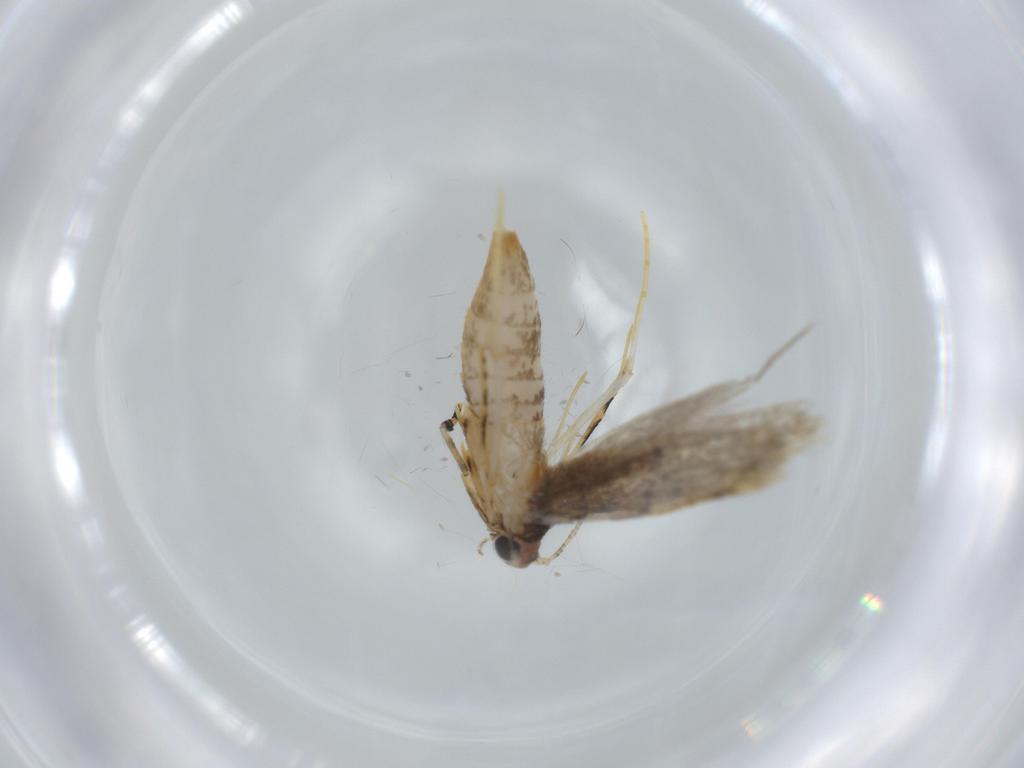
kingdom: Animalia
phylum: Arthropoda
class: Insecta
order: Lepidoptera
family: Tineidae
